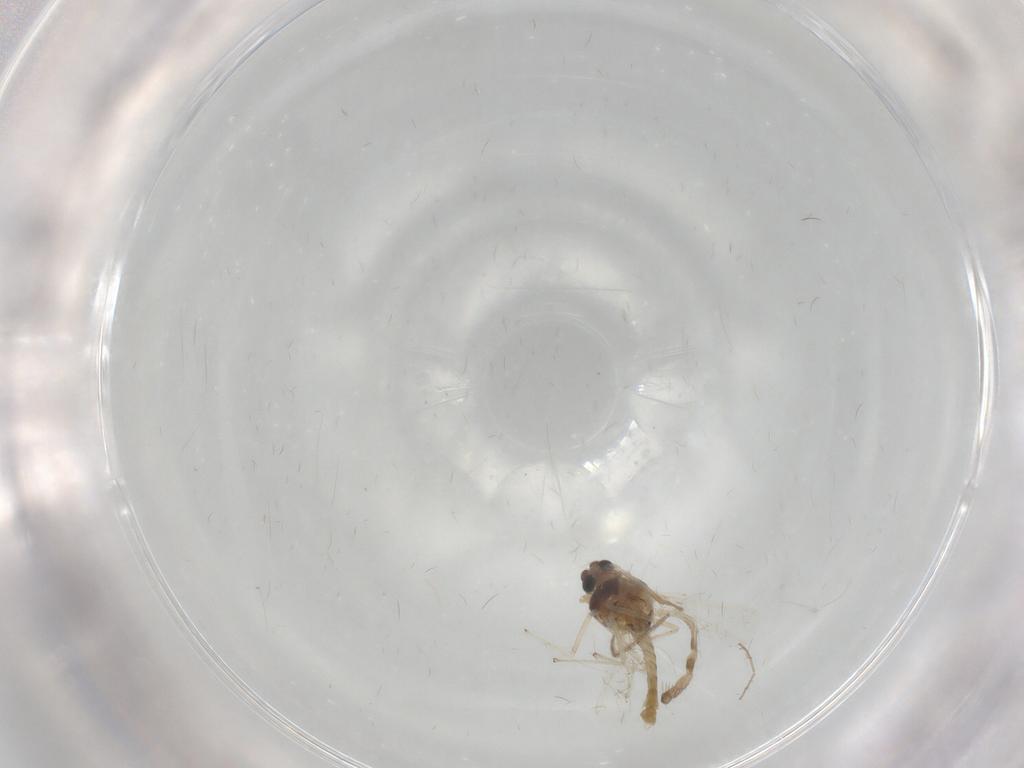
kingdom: Animalia
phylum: Arthropoda
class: Insecta
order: Diptera
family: Chironomidae
